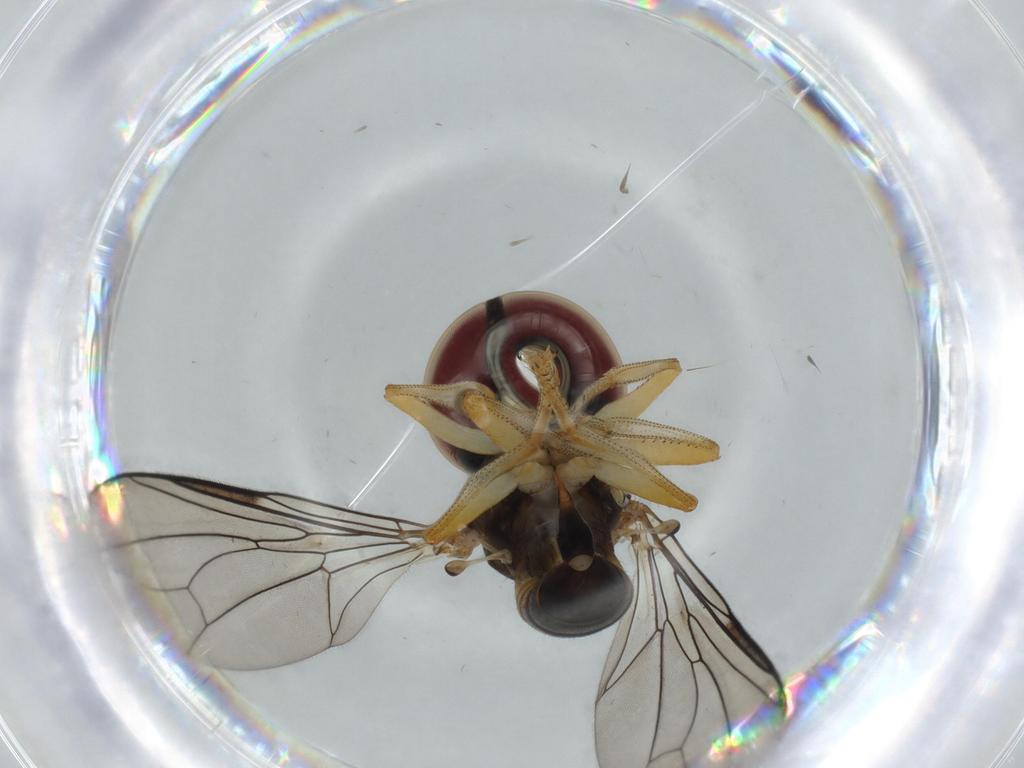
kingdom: Animalia
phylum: Arthropoda
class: Insecta
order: Diptera
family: Pipunculidae
